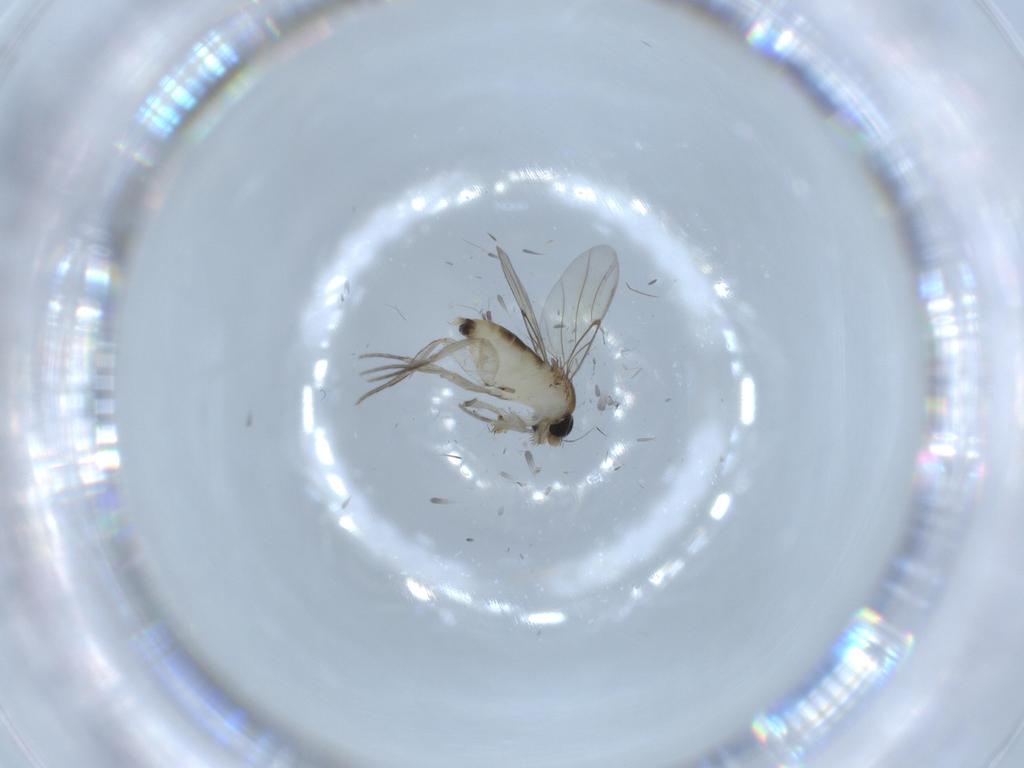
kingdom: Animalia
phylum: Arthropoda
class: Insecta
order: Diptera
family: Phoridae
